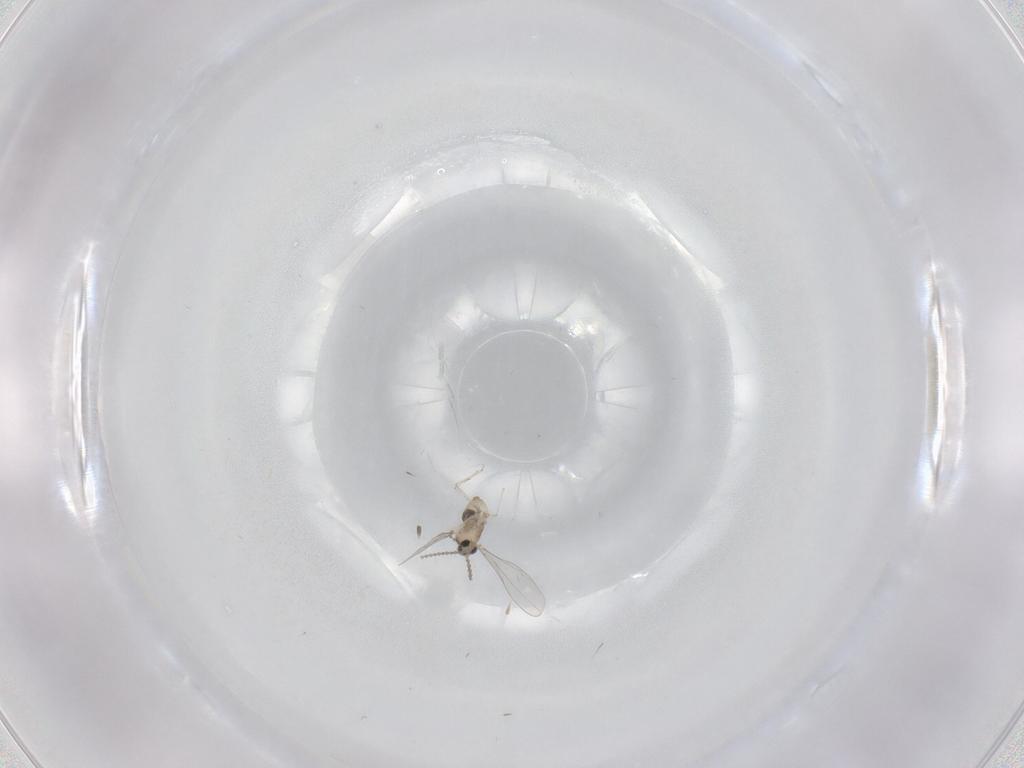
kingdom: Animalia
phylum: Arthropoda
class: Insecta
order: Diptera
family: Cecidomyiidae
